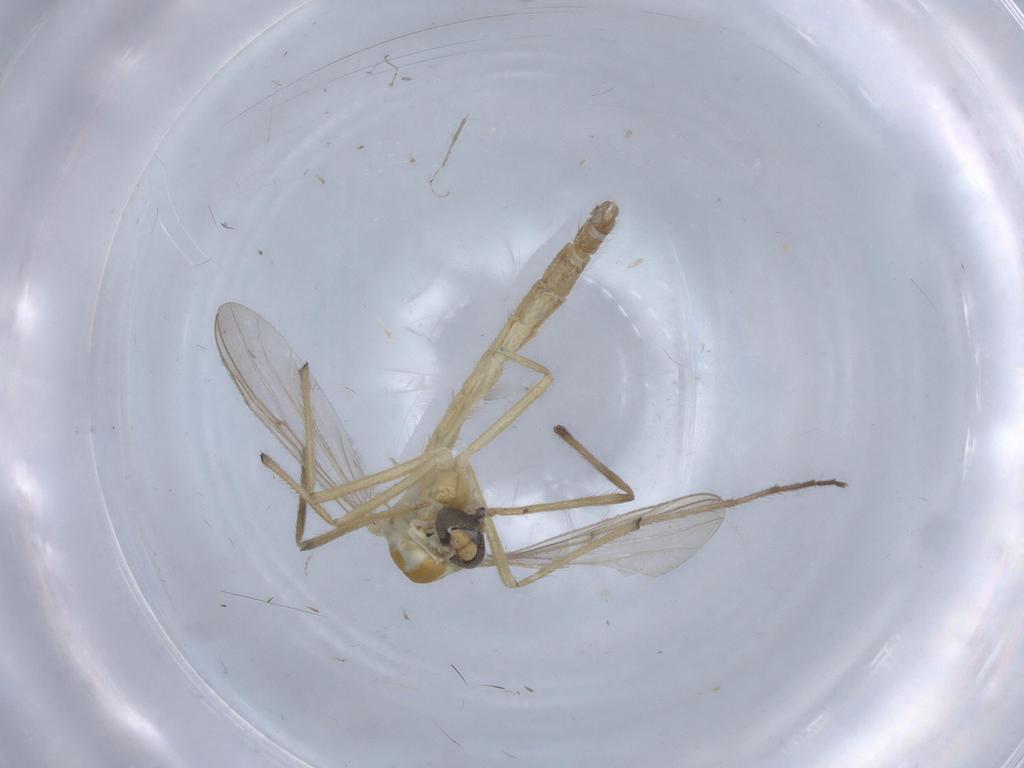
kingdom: Animalia
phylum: Arthropoda
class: Insecta
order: Diptera
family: Chironomidae
